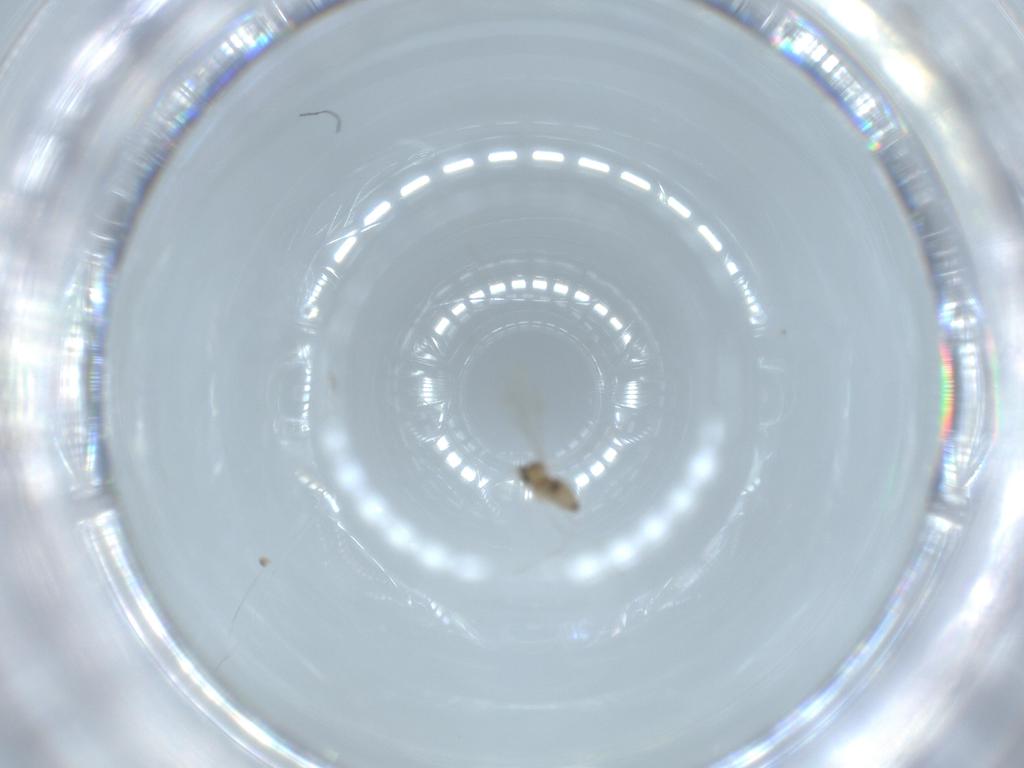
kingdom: Animalia
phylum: Arthropoda
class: Insecta
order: Diptera
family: Cecidomyiidae
